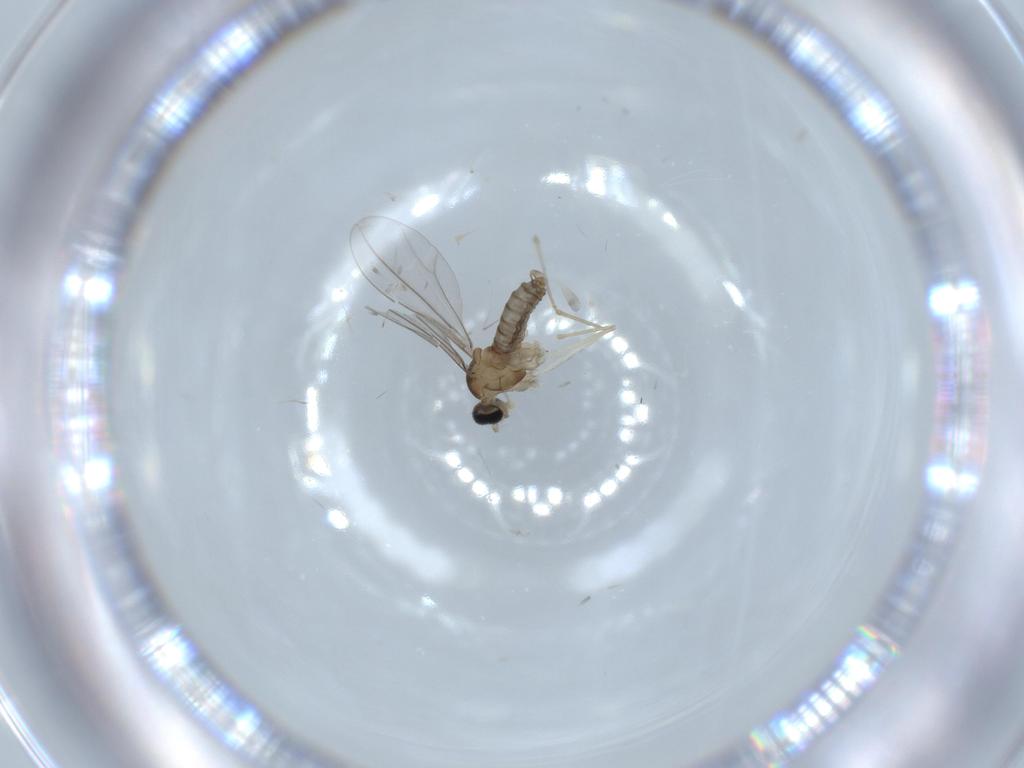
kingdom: Animalia
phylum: Arthropoda
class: Insecta
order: Diptera
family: Cecidomyiidae
